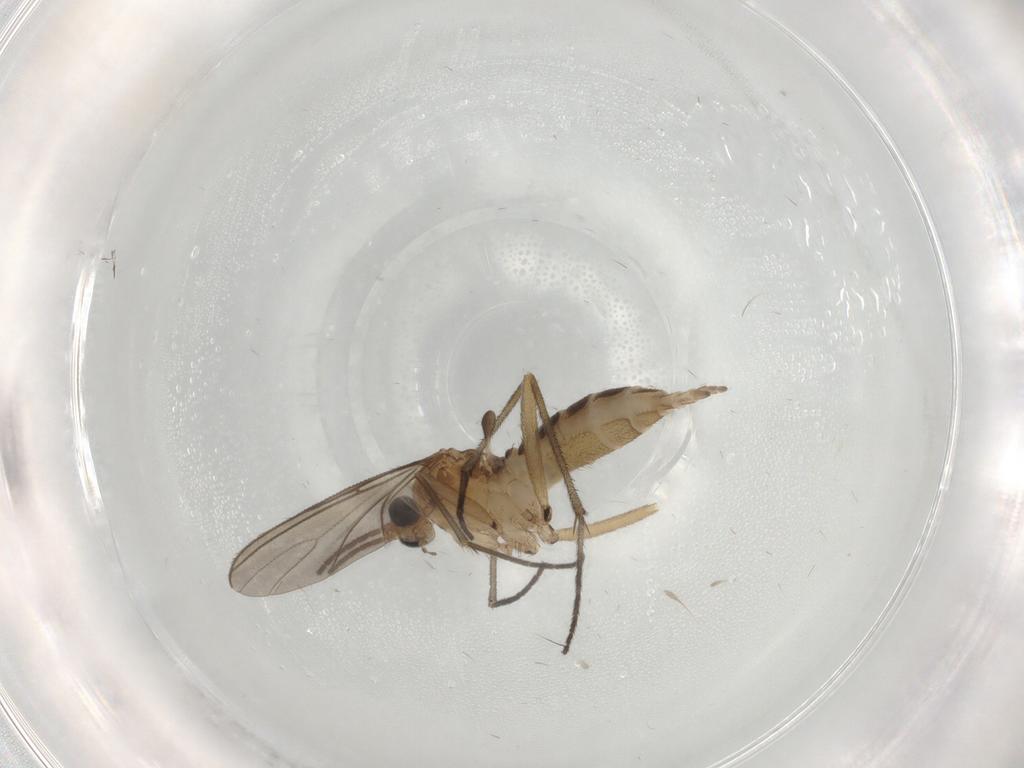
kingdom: Animalia
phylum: Arthropoda
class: Insecta
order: Diptera
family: Sciaridae
